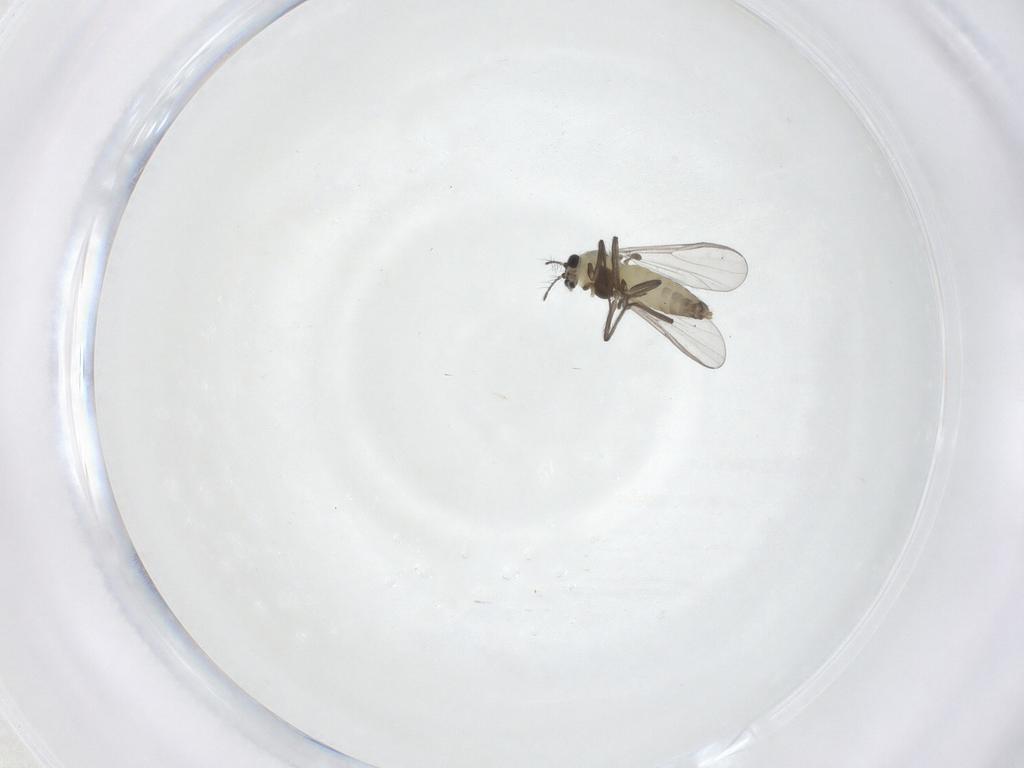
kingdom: Animalia
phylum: Arthropoda
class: Insecta
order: Diptera
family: Chironomidae
